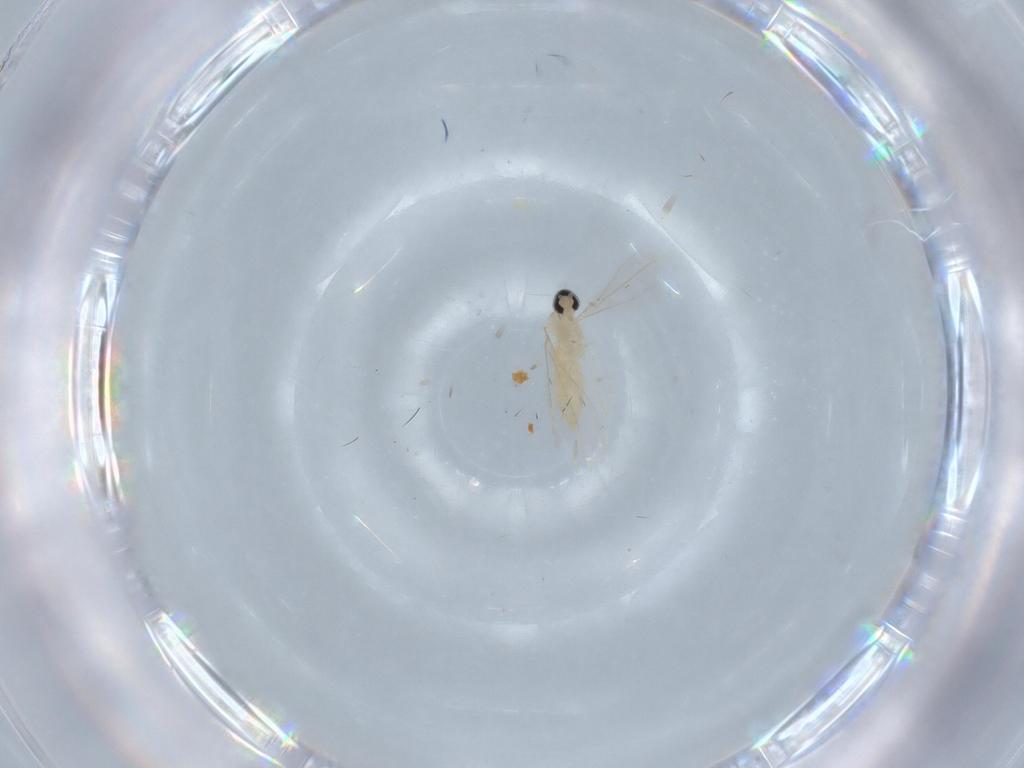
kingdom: Animalia
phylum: Arthropoda
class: Insecta
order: Diptera
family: Cecidomyiidae
